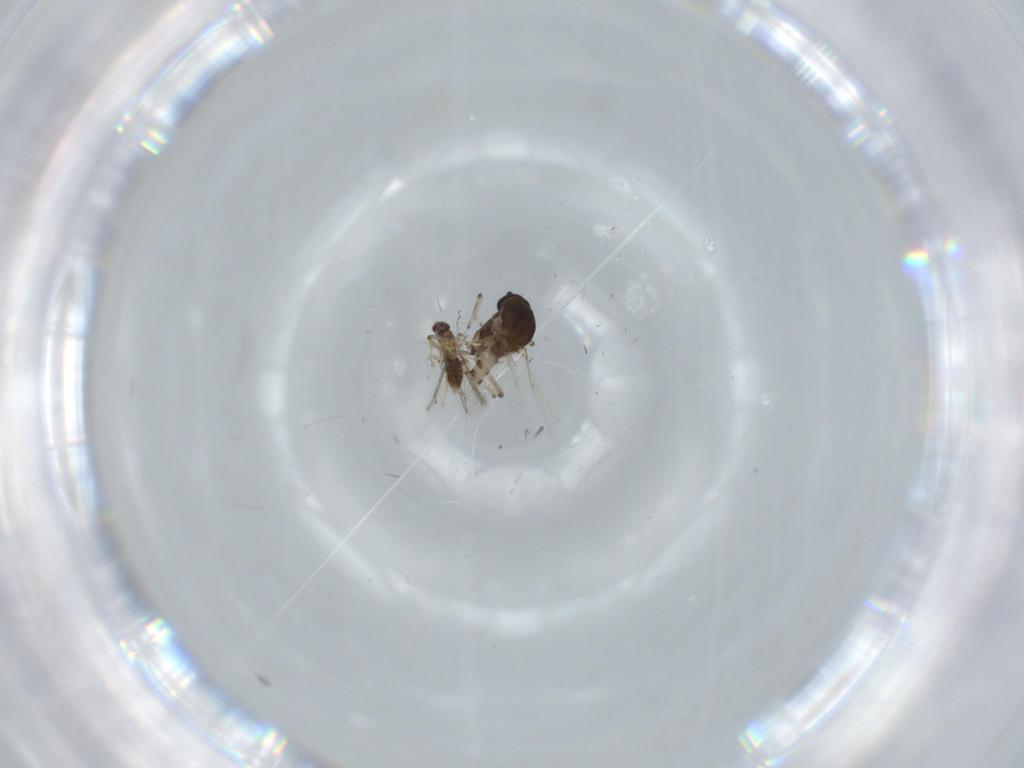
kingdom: Animalia
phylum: Arthropoda
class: Insecta
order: Diptera
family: Ceratopogonidae
